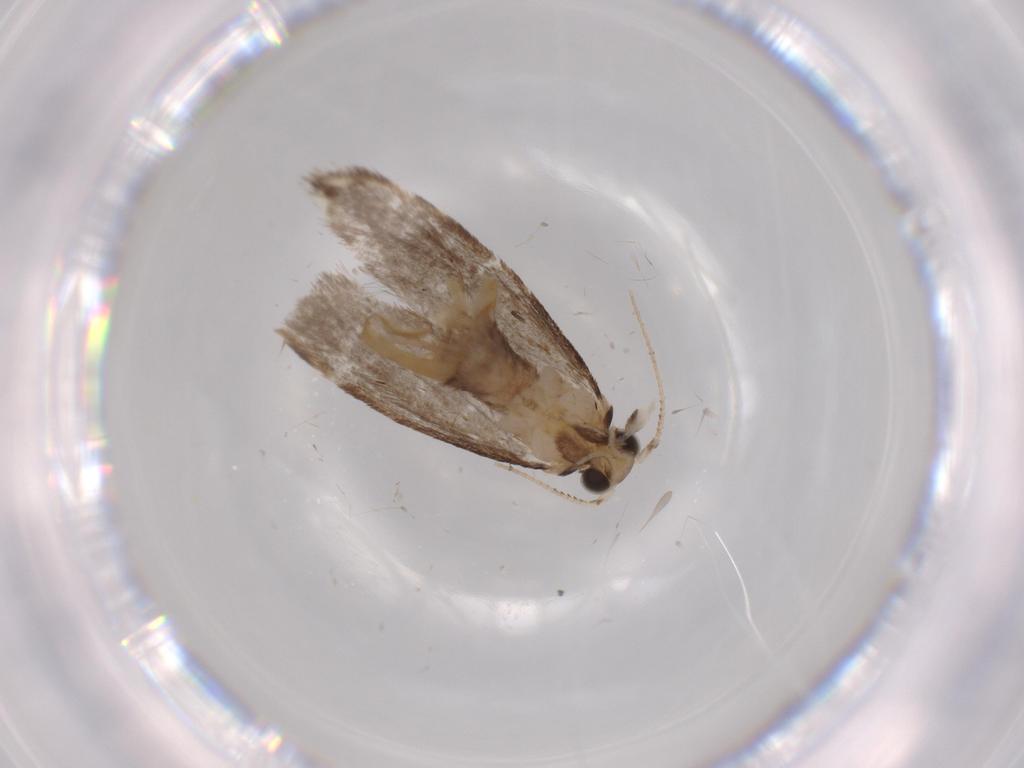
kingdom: Animalia
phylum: Arthropoda
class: Insecta
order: Lepidoptera
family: Tineidae
